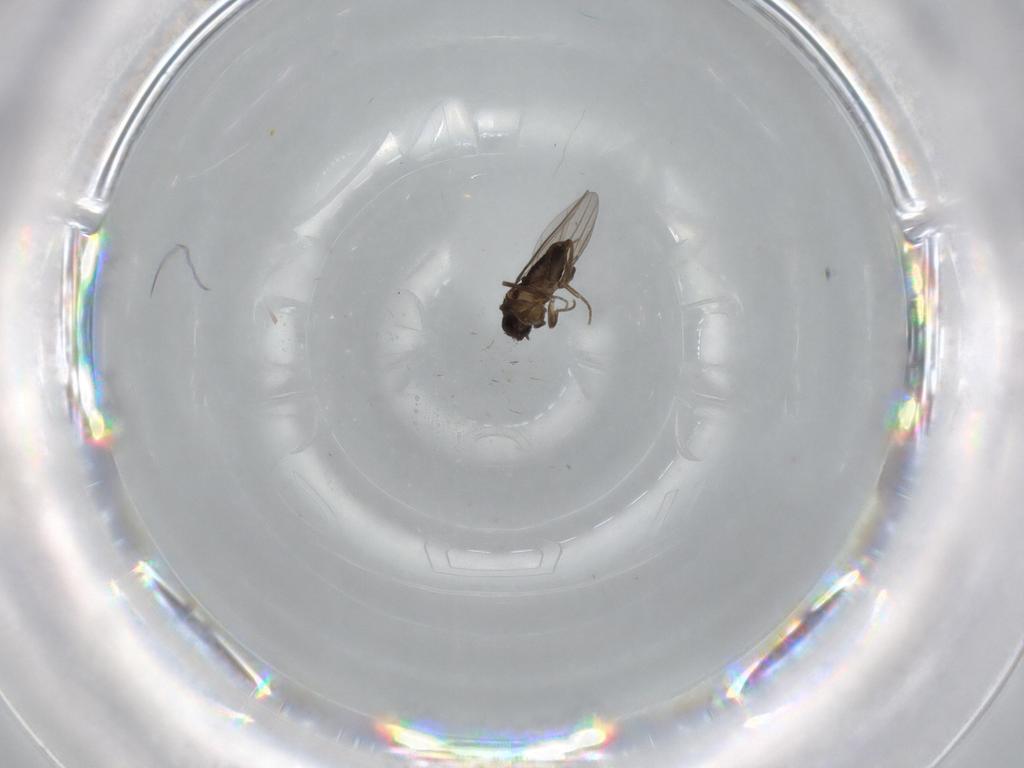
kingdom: Animalia
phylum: Arthropoda
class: Insecta
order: Diptera
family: Phoridae
